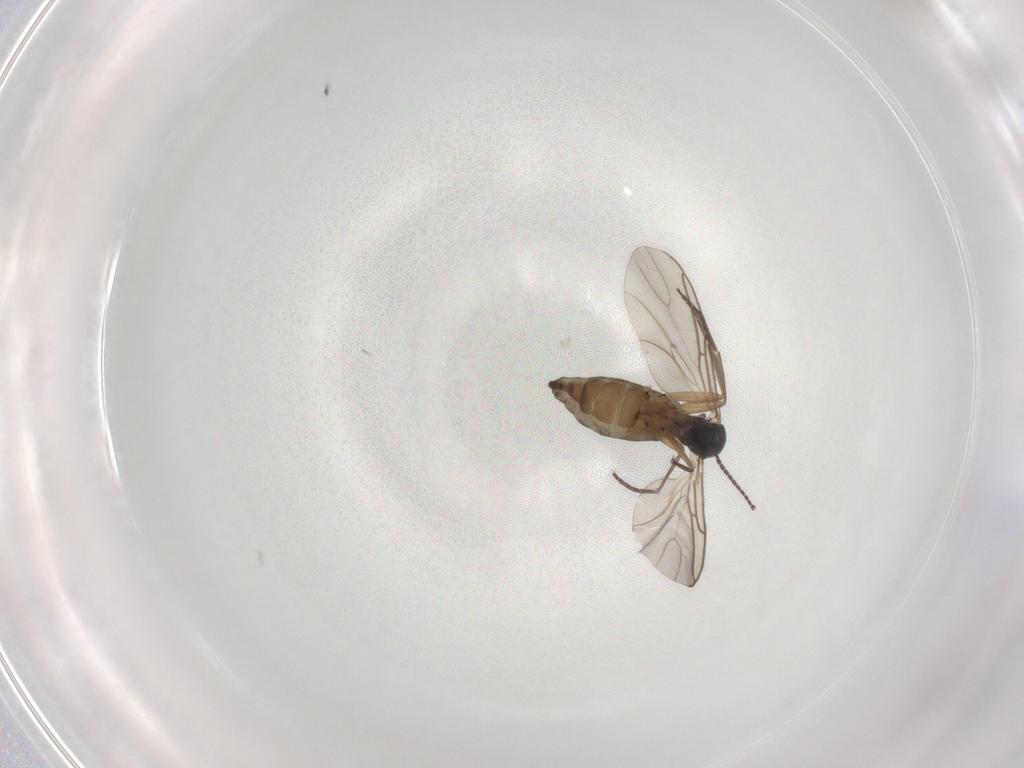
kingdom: Animalia
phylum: Arthropoda
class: Insecta
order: Diptera
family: Sciaridae
